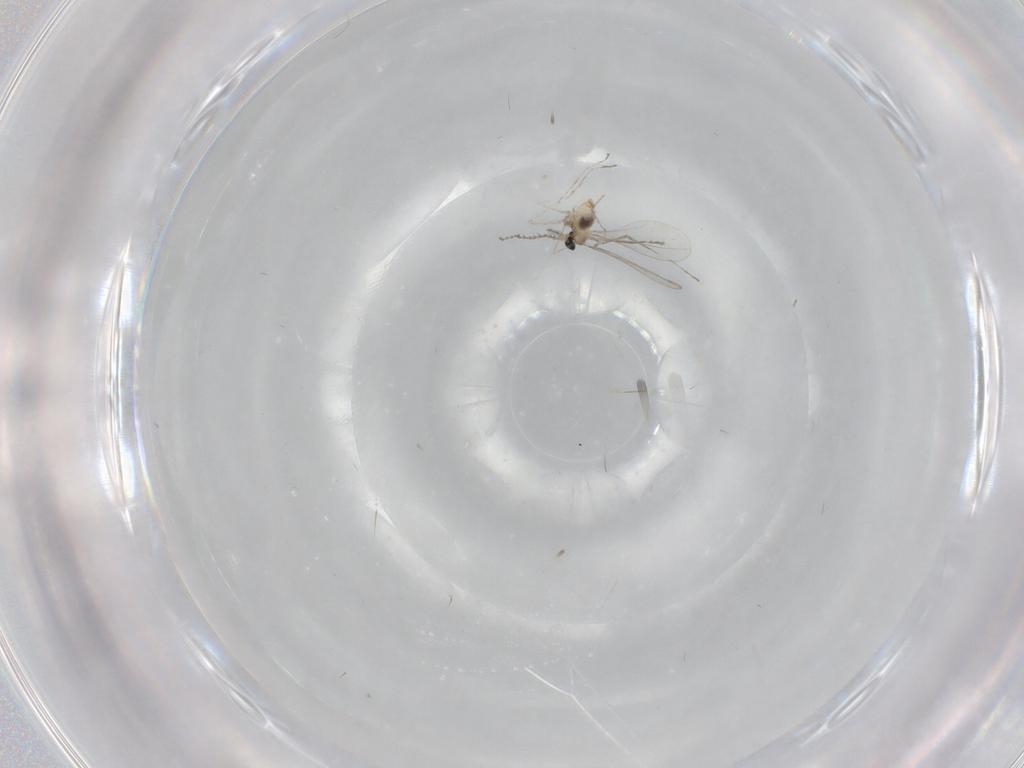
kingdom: Animalia
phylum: Arthropoda
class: Insecta
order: Diptera
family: Cecidomyiidae
